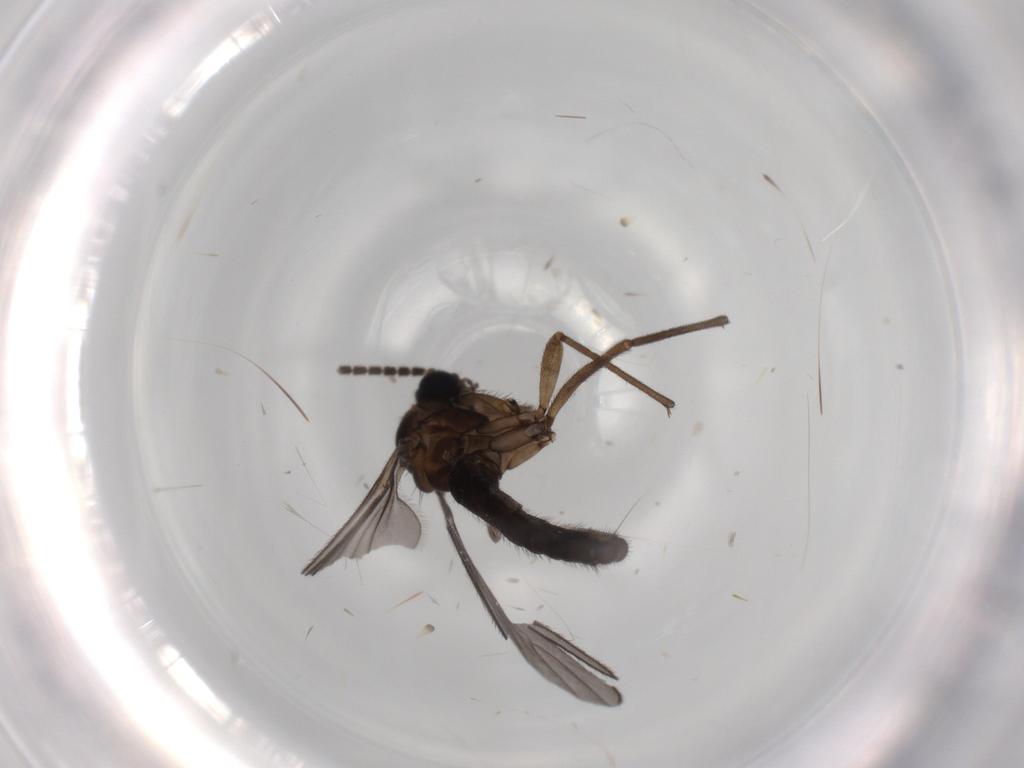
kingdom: Animalia
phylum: Arthropoda
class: Insecta
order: Diptera
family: Sciaridae
